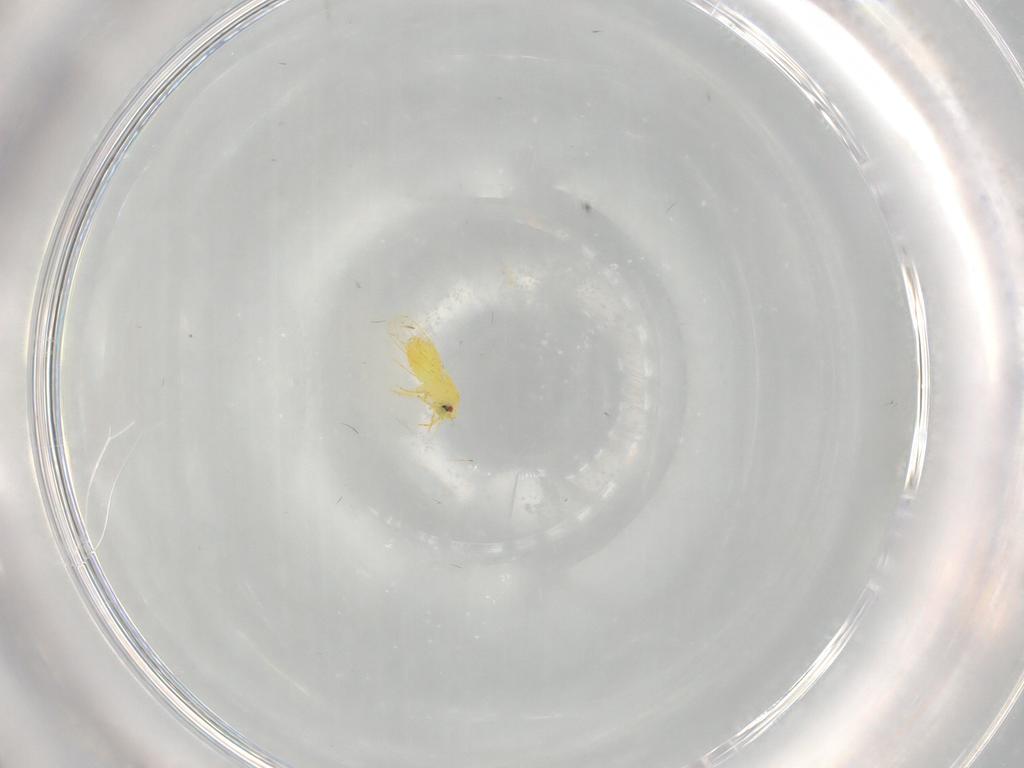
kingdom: Animalia
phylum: Arthropoda
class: Insecta
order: Hemiptera
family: Aleyrodidae
